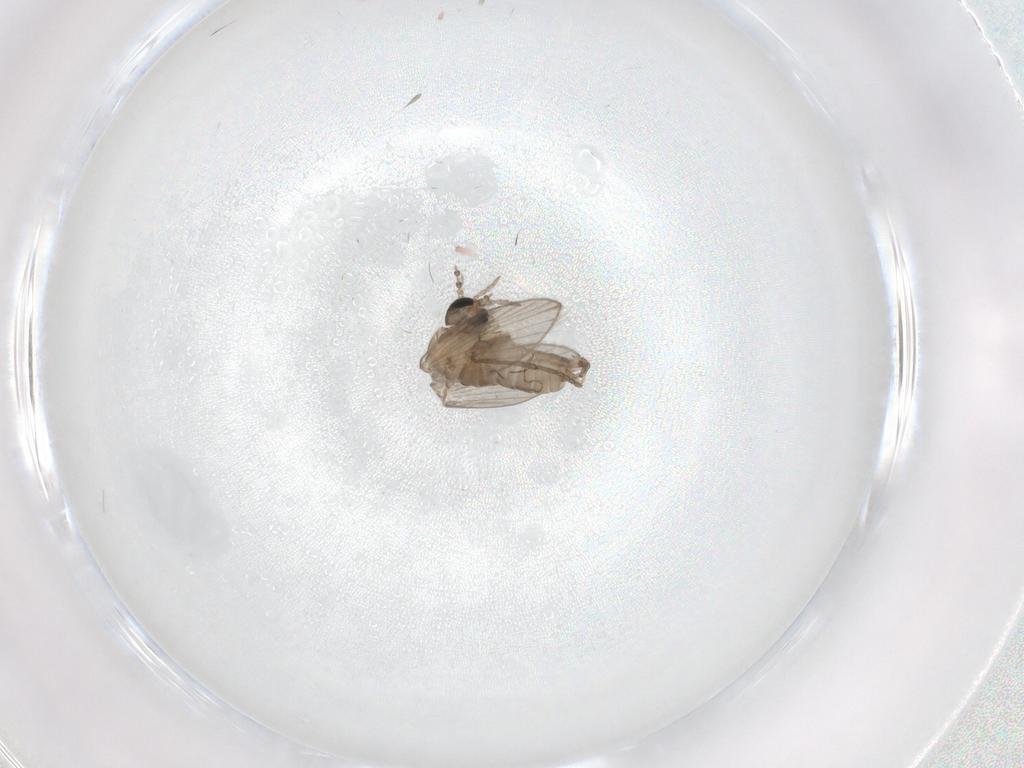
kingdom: Animalia
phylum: Arthropoda
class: Insecta
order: Diptera
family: Psychodidae
